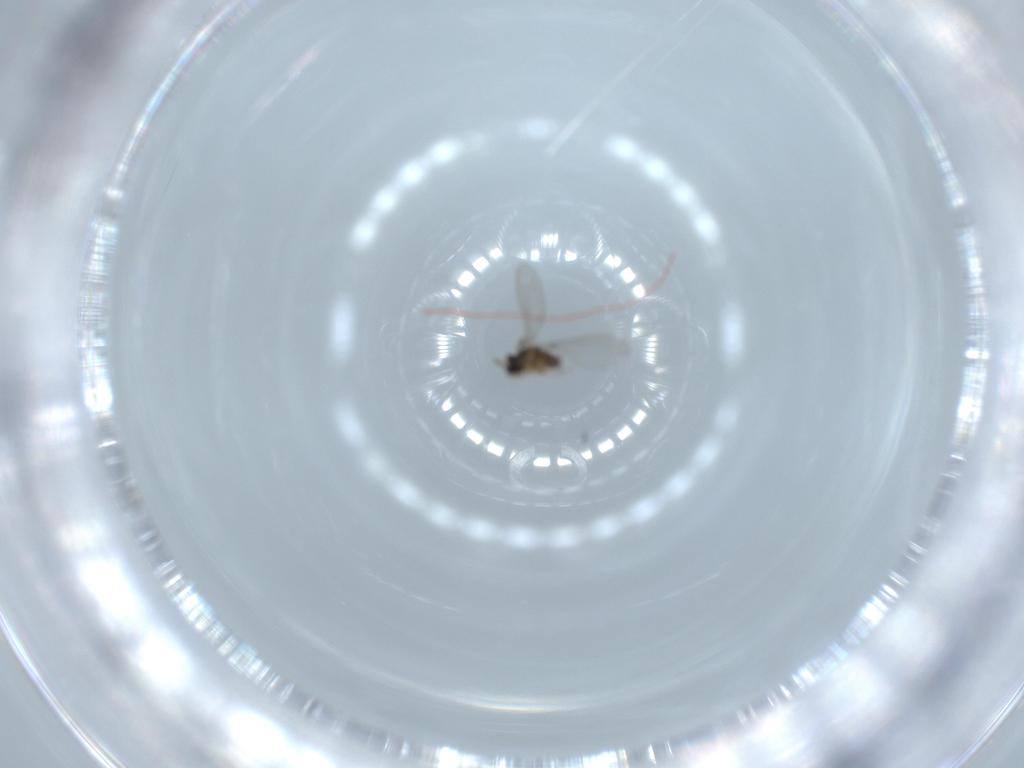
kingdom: Animalia
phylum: Arthropoda
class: Insecta
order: Diptera
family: Cecidomyiidae
